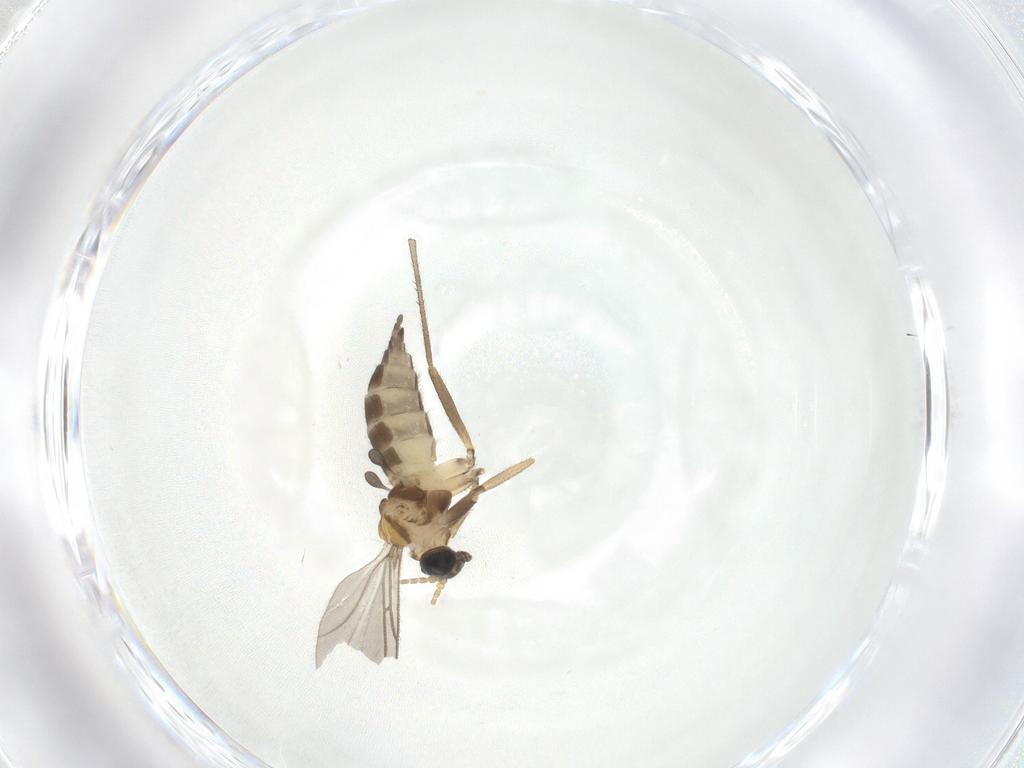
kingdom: Animalia
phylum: Arthropoda
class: Insecta
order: Diptera
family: Sciaridae
